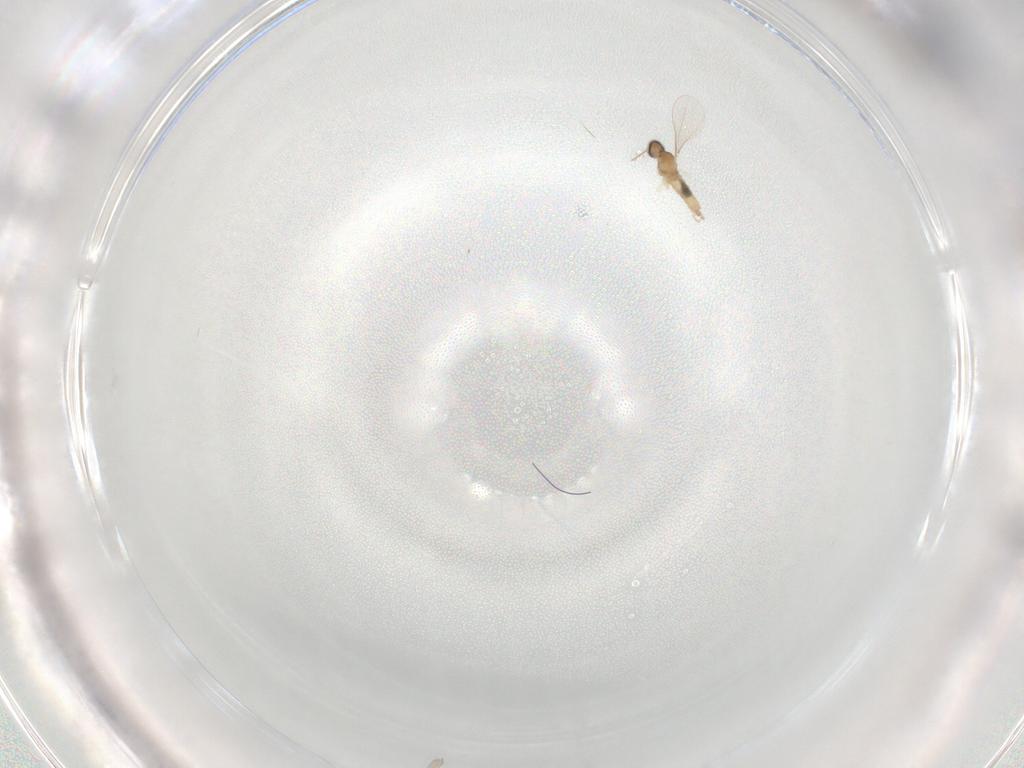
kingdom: Animalia
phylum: Arthropoda
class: Insecta
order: Diptera
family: Cecidomyiidae
